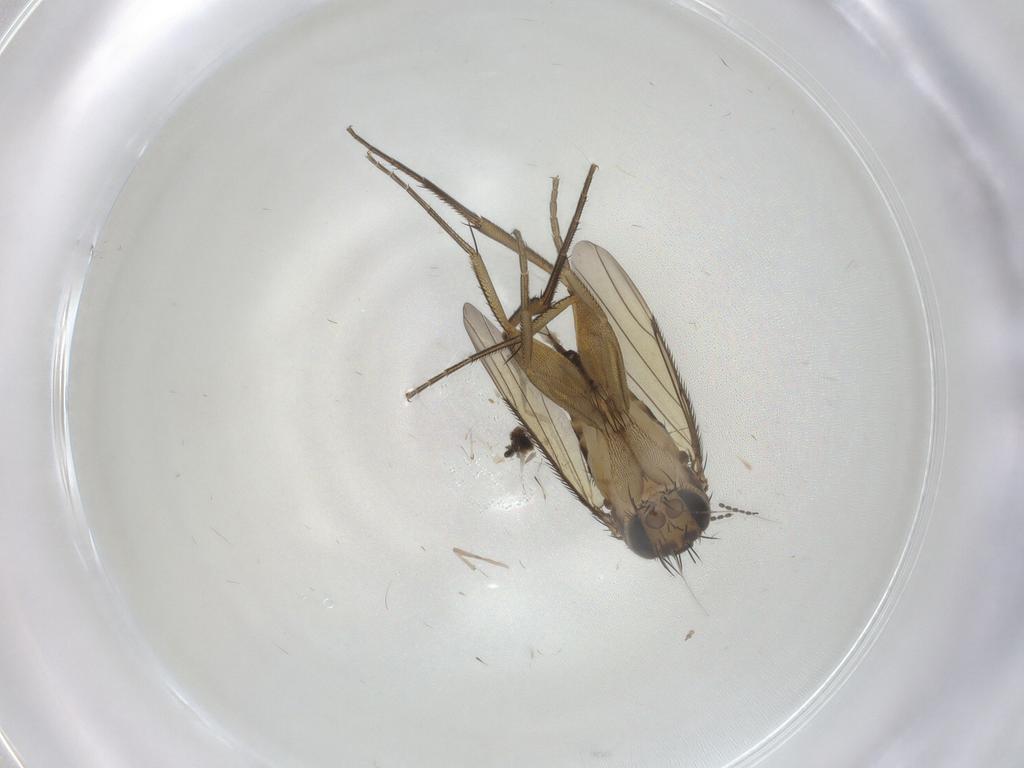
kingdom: Animalia
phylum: Arthropoda
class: Insecta
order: Diptera
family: Phoridae
